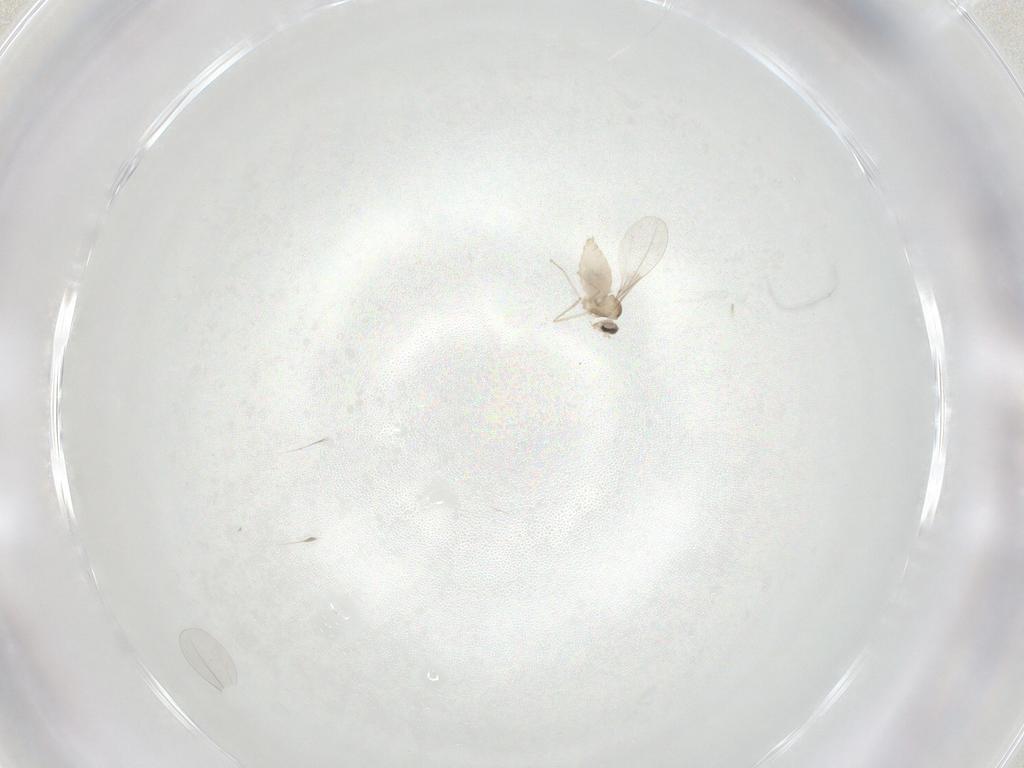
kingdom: Animalia
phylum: Arthropoda
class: Insecta
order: Diptera
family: Cecidomyiidae
